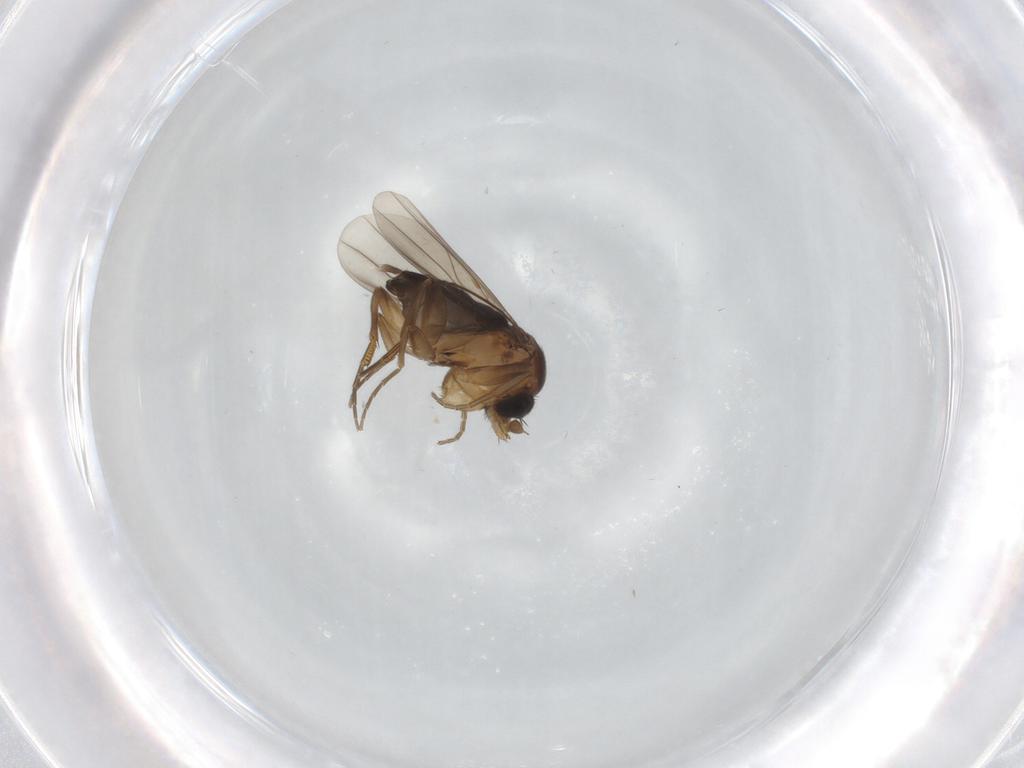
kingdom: Animalia
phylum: Arthropoda
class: Insecta
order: Diptera
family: Phoridae
